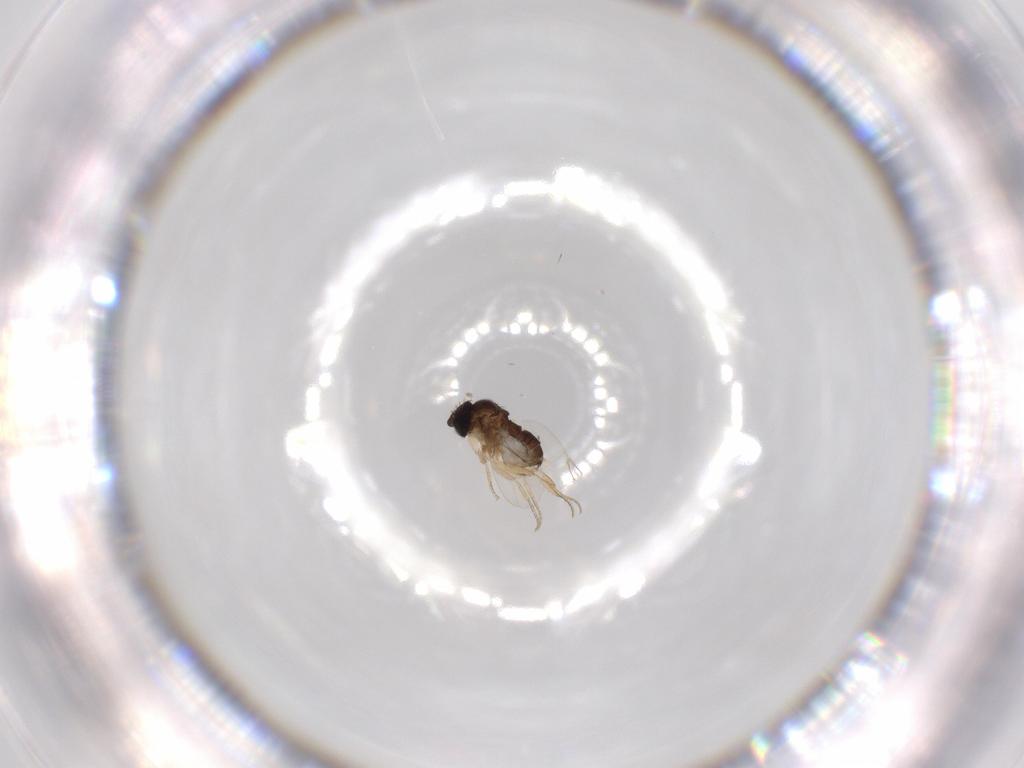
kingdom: Animalia
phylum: Arthropoda
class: Insecta
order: Diptera
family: Phoridae
